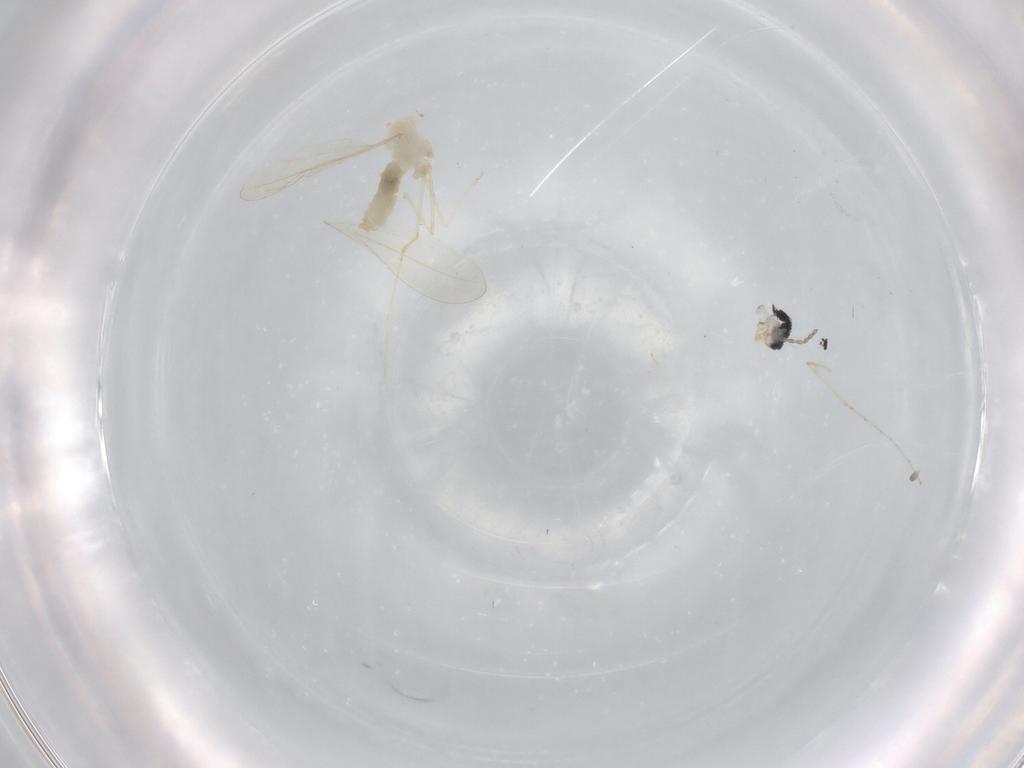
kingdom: Animalia
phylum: Arthropoda
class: Insecta
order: Diptera
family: Cecidomyiidae
